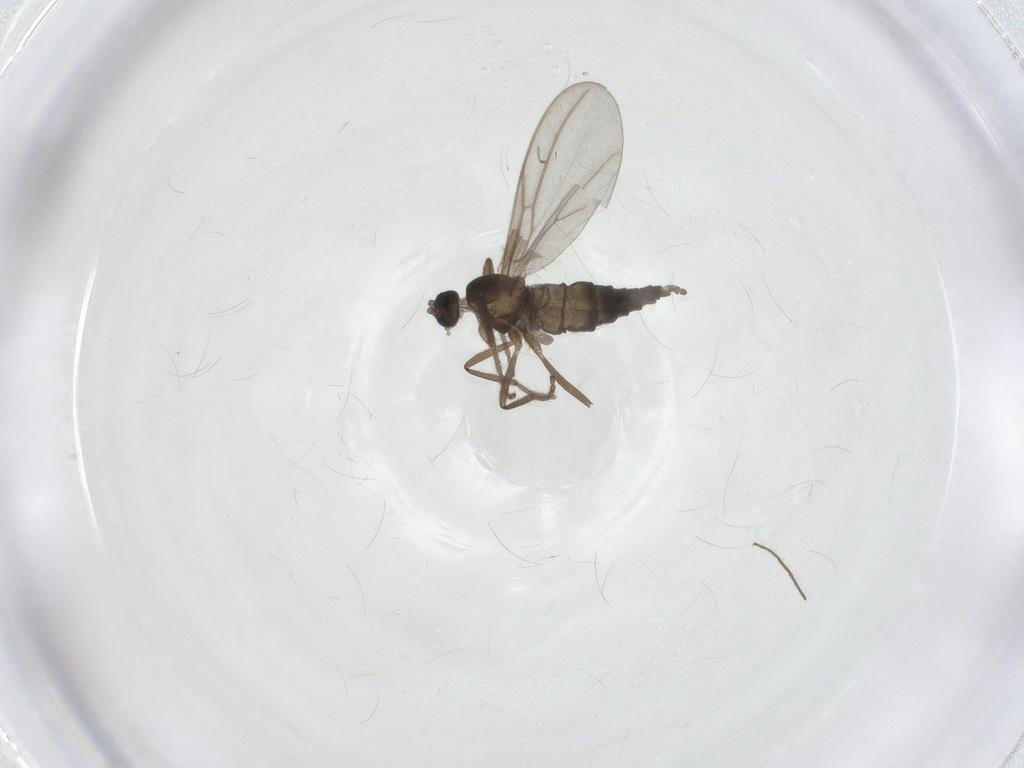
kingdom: Animalia
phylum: Arthropoda
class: Insecta
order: Diptera
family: Cecidomyiidae
